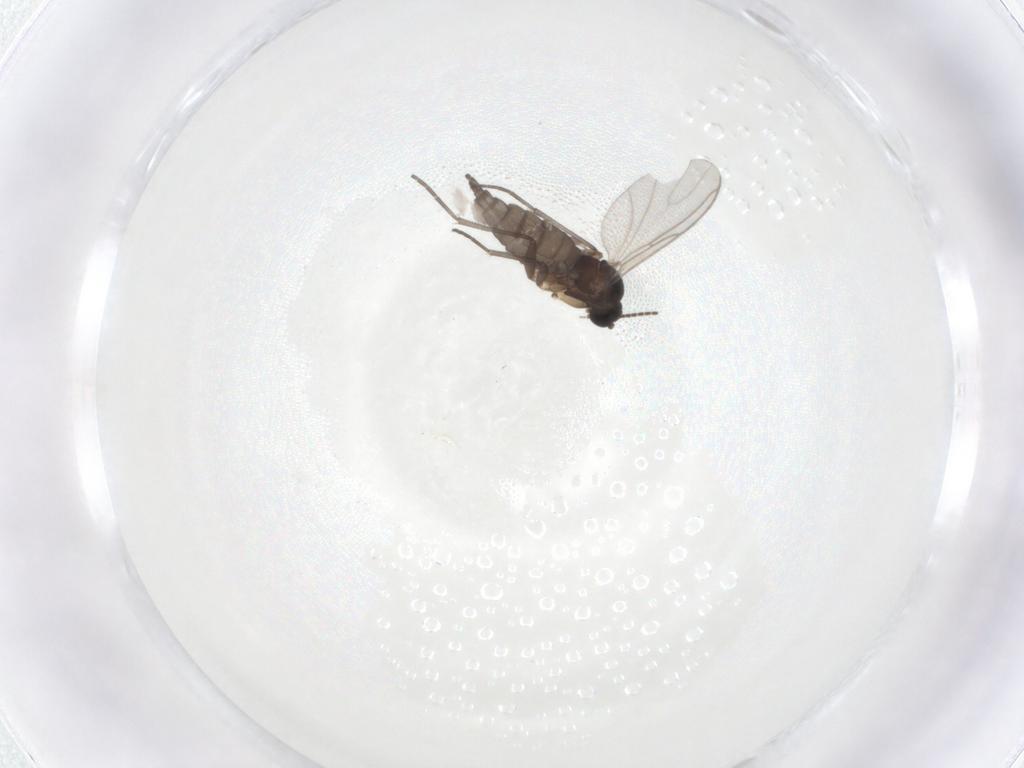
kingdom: Animalia
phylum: Arthropoda
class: Insecta
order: Diptera
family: Sciaridae
